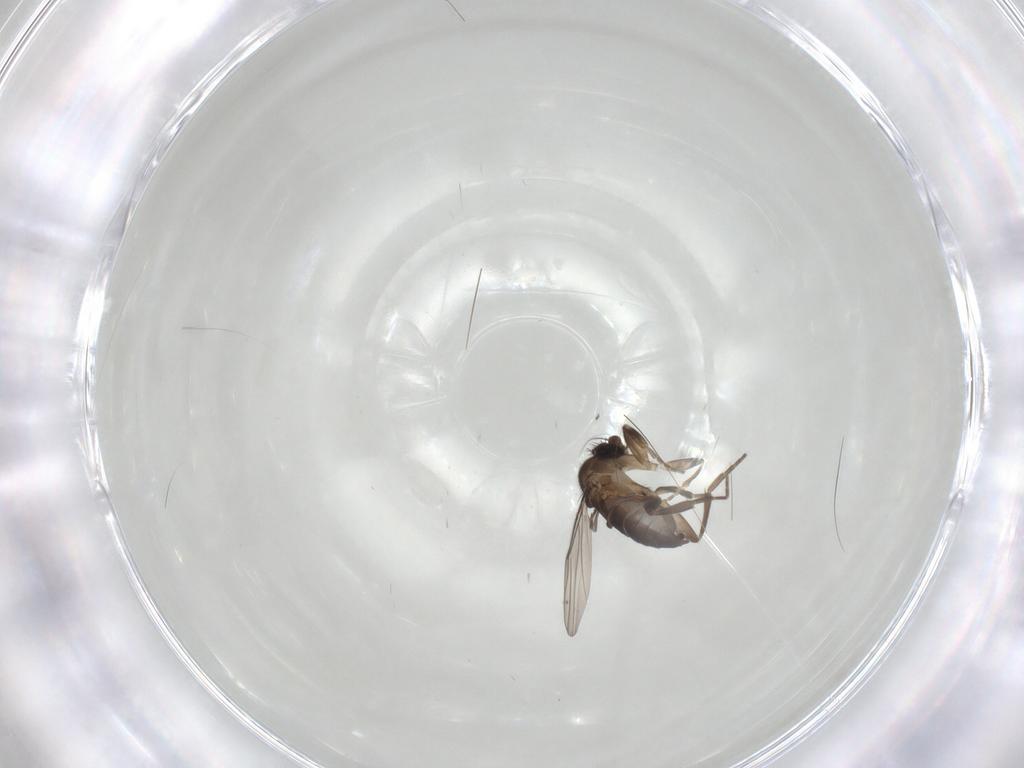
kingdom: Animalia
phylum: Arthropoda
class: Insecta
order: Diptera
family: Phoridae
